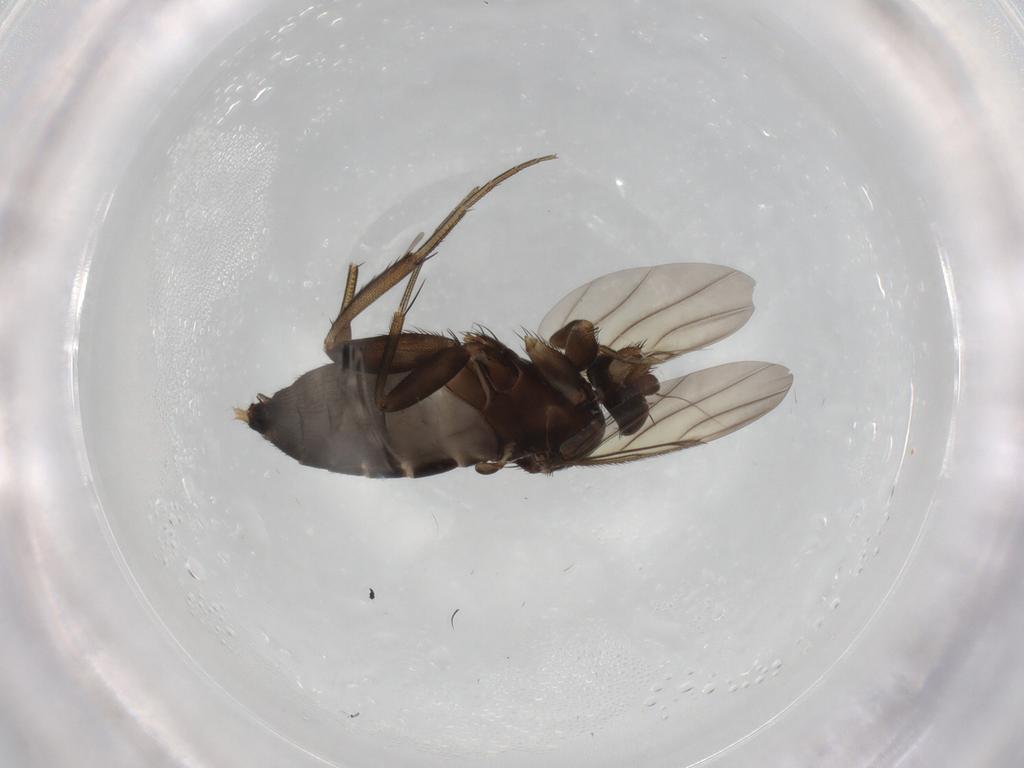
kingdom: Animalia
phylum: Arthropoda
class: Insecta
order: Diptera
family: Phoridae
